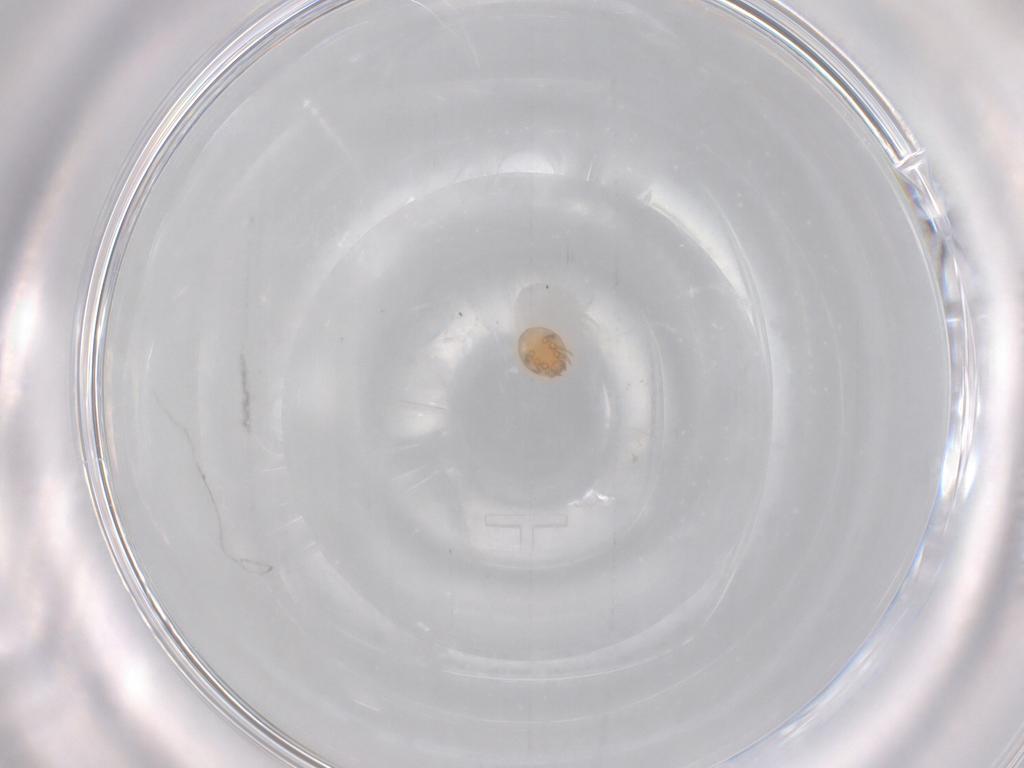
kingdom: Animalia
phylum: Arthropoda
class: Arachnida
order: Mesostigmata
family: Trematuridae
